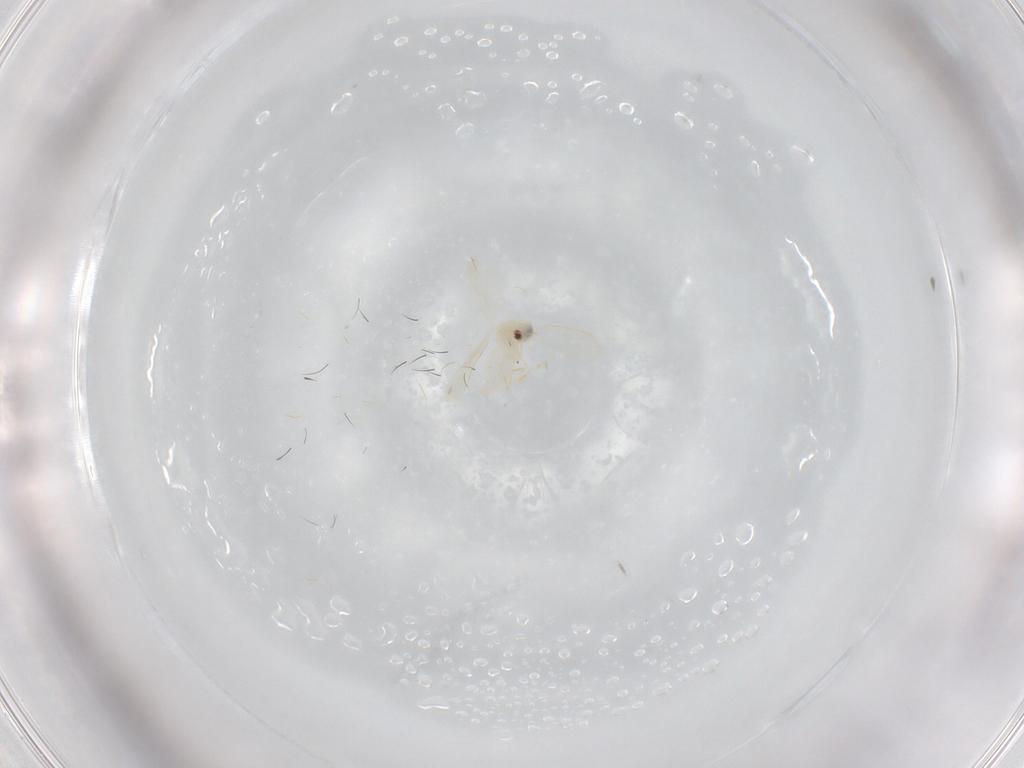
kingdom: Animalia
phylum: Arthropoda
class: Insecta
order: Hemiptera
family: Aleyrodidae
